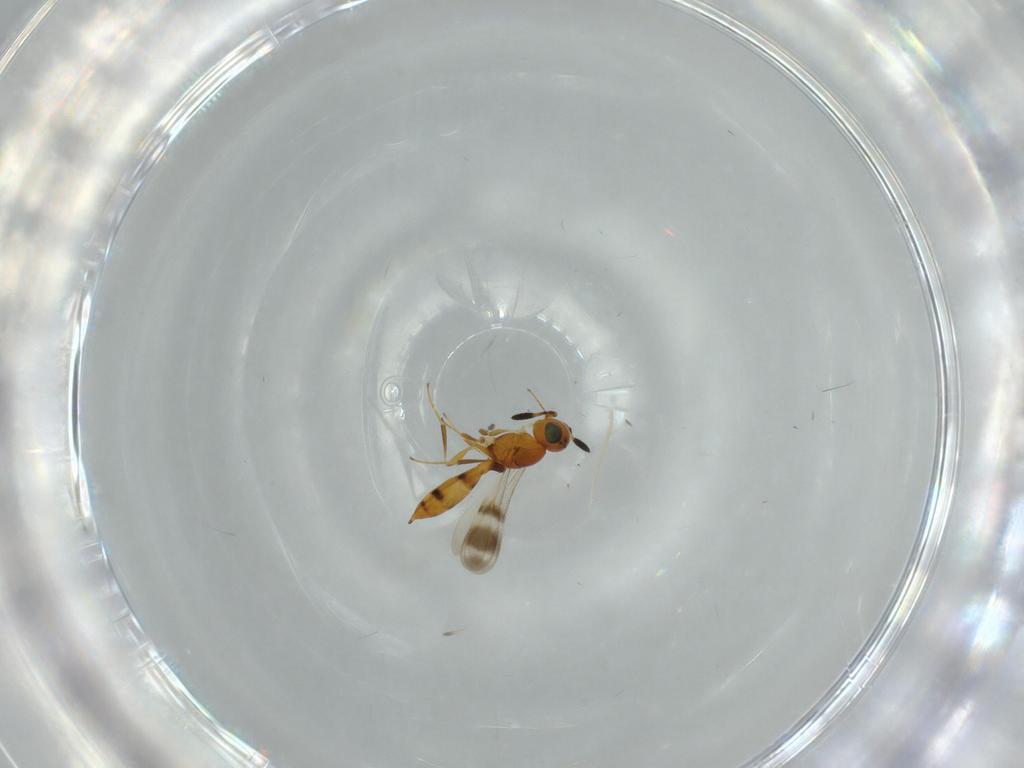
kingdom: Animalia
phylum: Arthropoda
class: Insecta
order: Hymenoptera
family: Scelionidae
